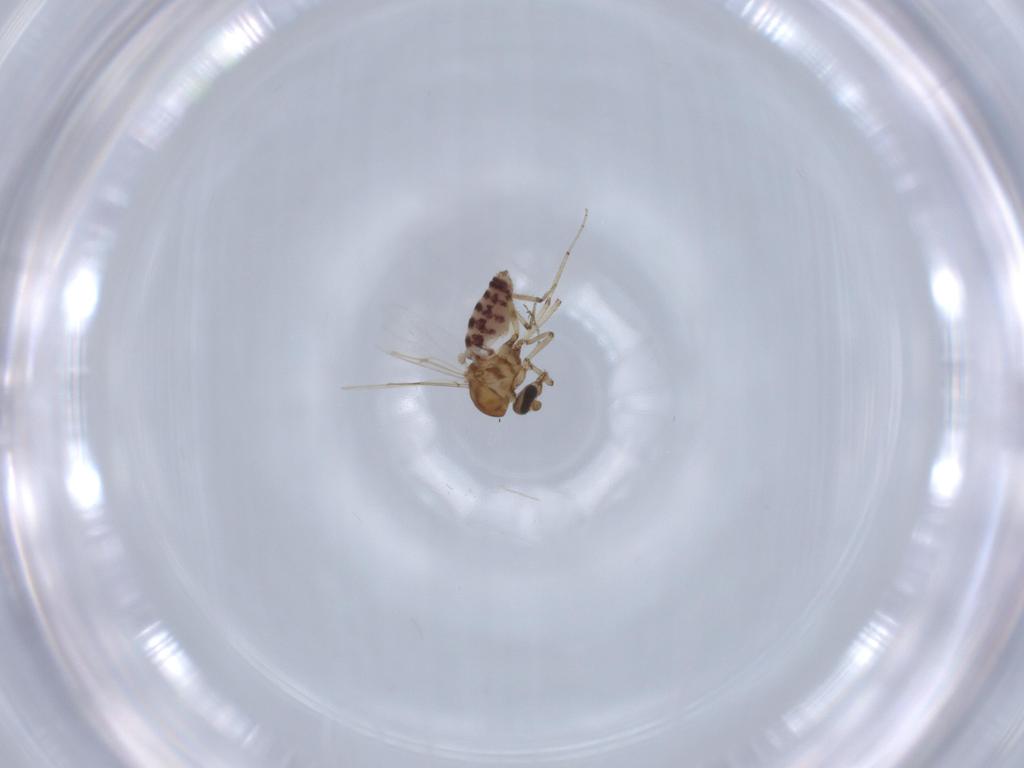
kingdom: Animalia
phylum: Arthropoda
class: Insecta
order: Diptera
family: Ceratopogonidae
